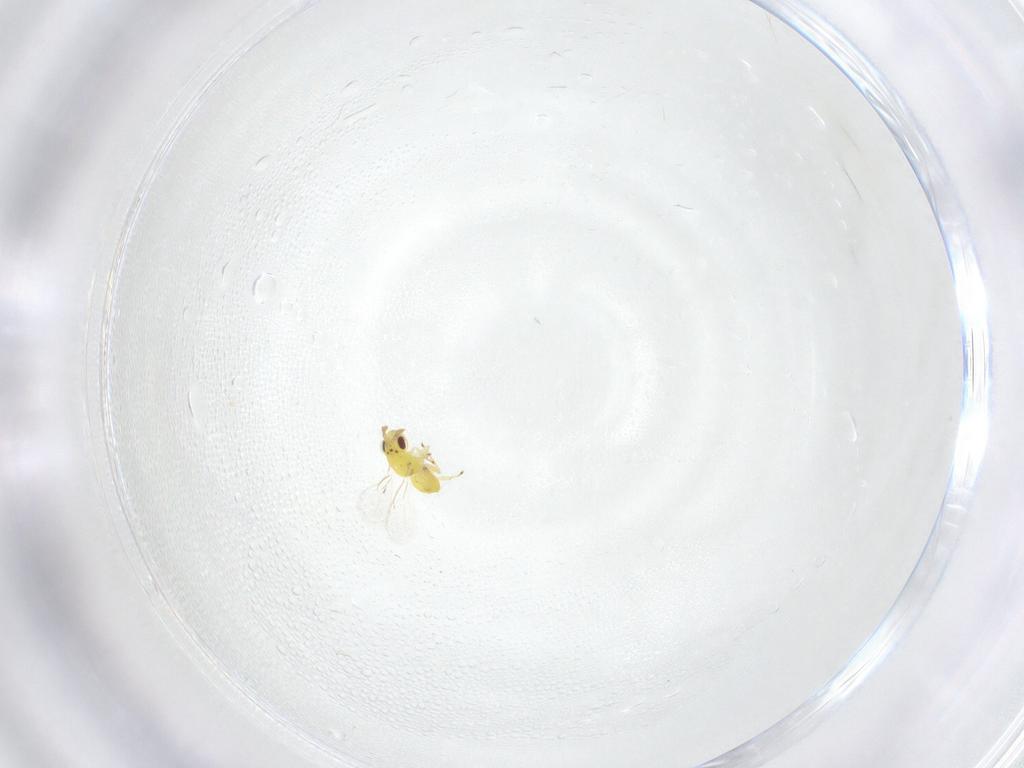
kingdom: Animalia
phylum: Arthropoda
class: Insecta
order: Hymenoptera
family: Eulophidae
